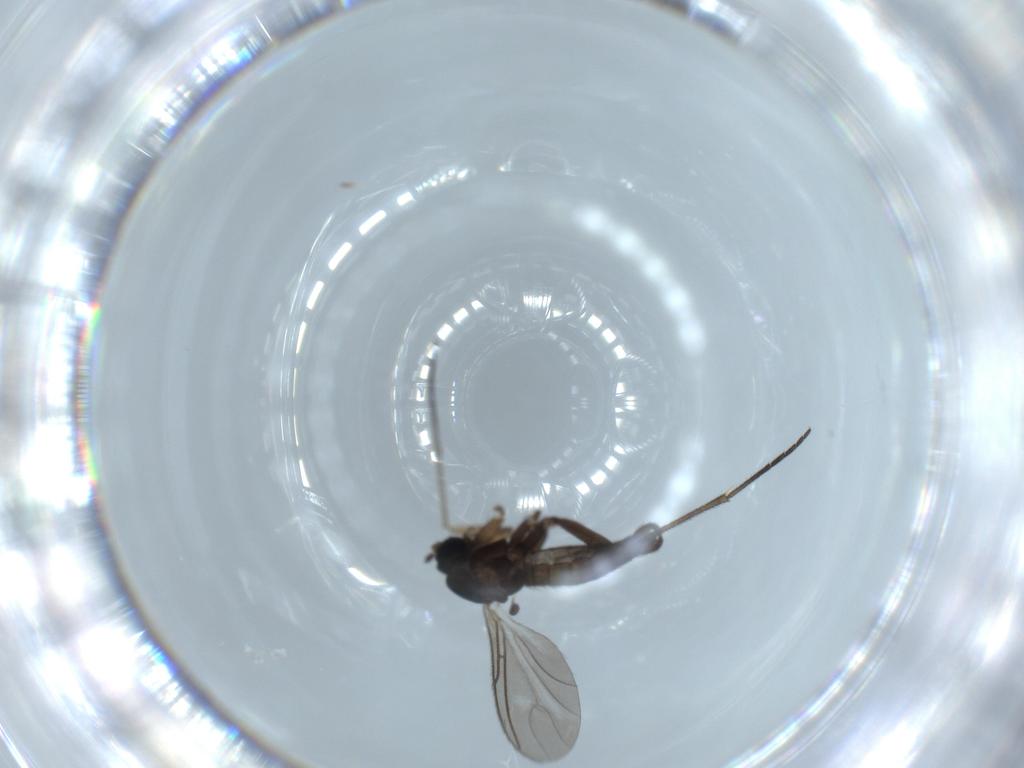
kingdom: Animalia
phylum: Arthropoda
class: Insecta
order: Diptera
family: Sciaridae
